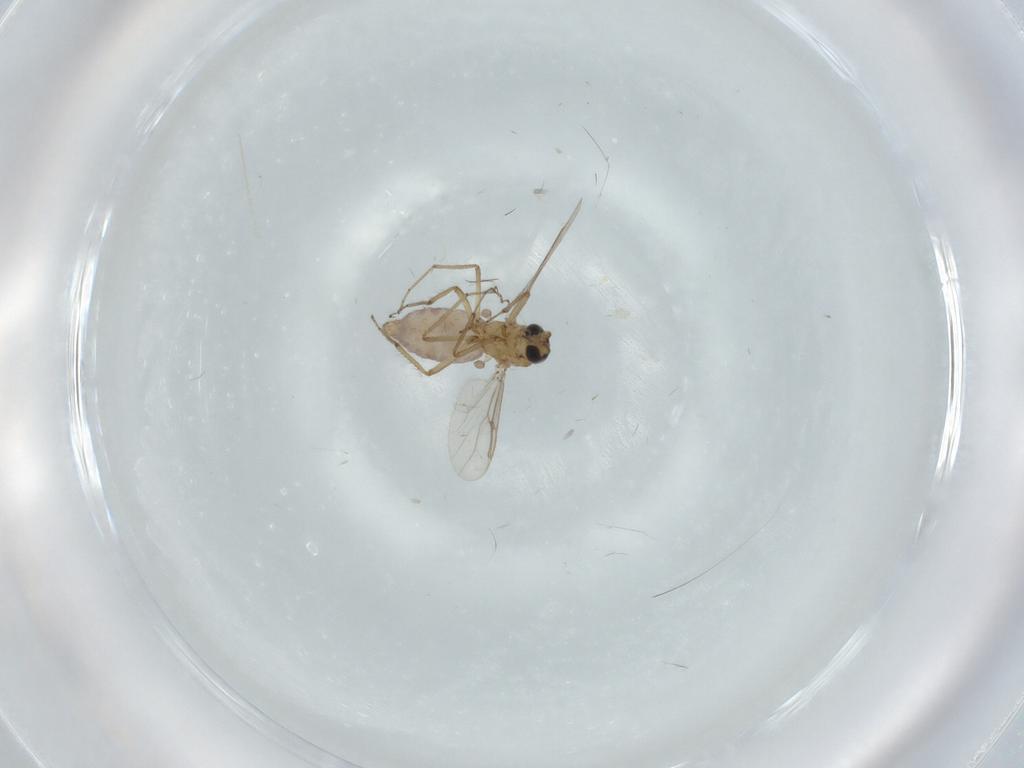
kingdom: Animalia
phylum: Arthropoda
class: Insecta
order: Diptera
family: Ceratopogonidae
